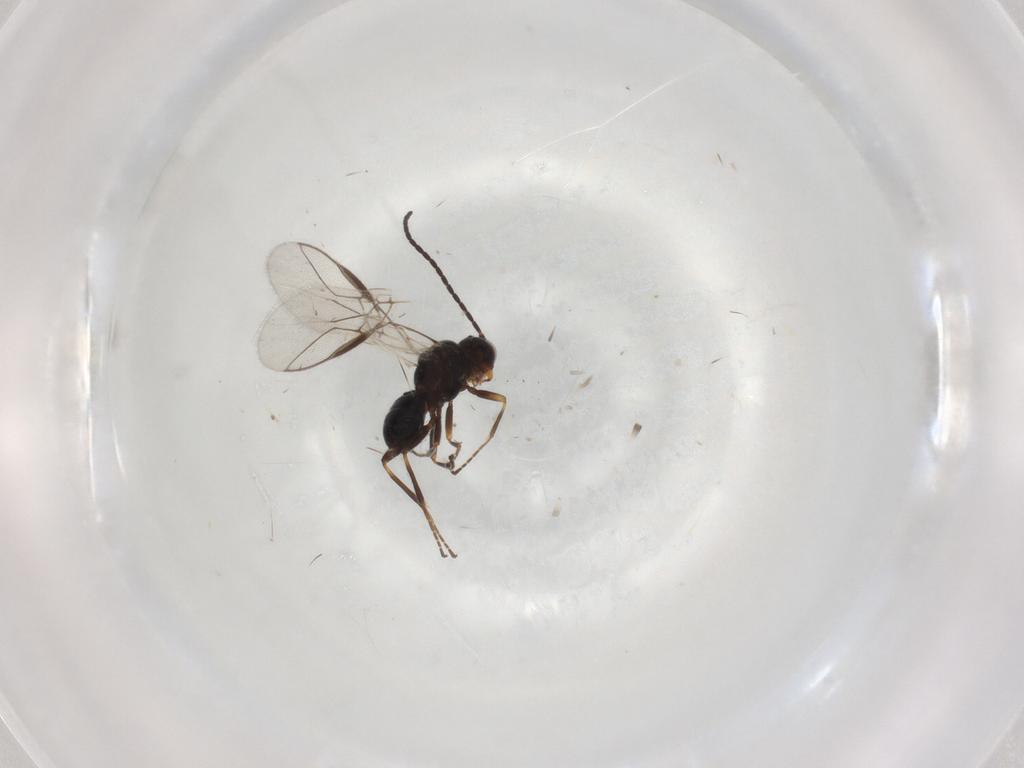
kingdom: Animalia
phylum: Arthropoda
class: Insecta
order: Hymenoptera
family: Braconidae
